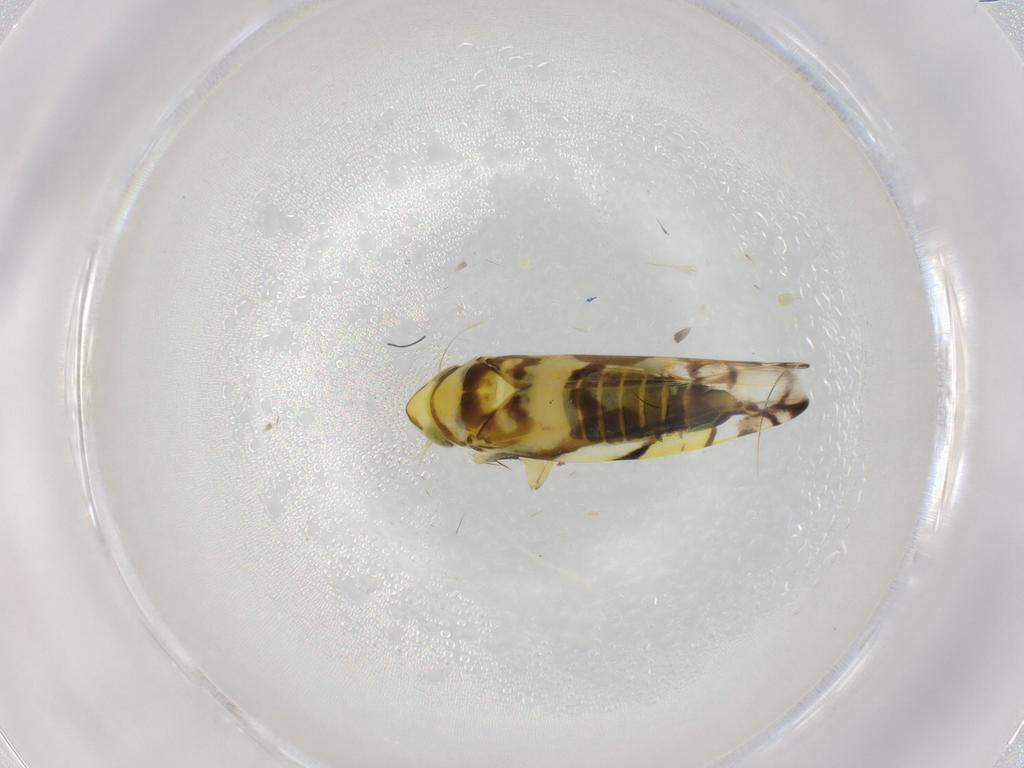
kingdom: Animalia
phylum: Arthropoda
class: Insecta
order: Hemiptera
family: Cicadellidae
